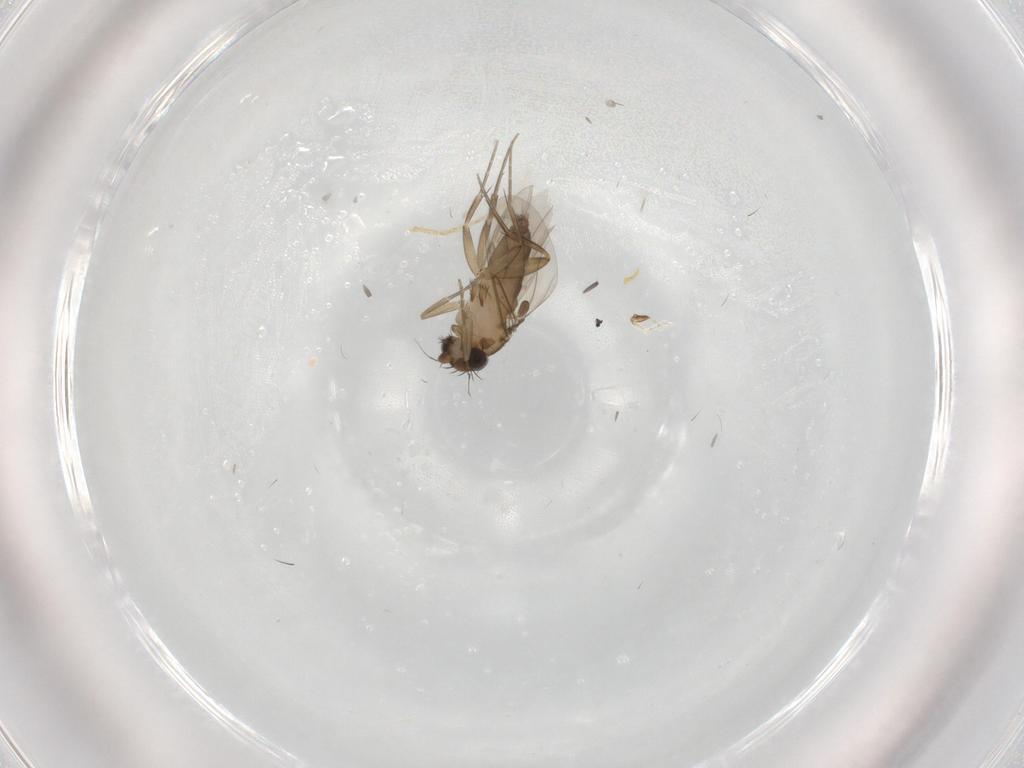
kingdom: Animalia
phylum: Arthropoda
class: Insecta
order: Diptera
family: Phoridae
